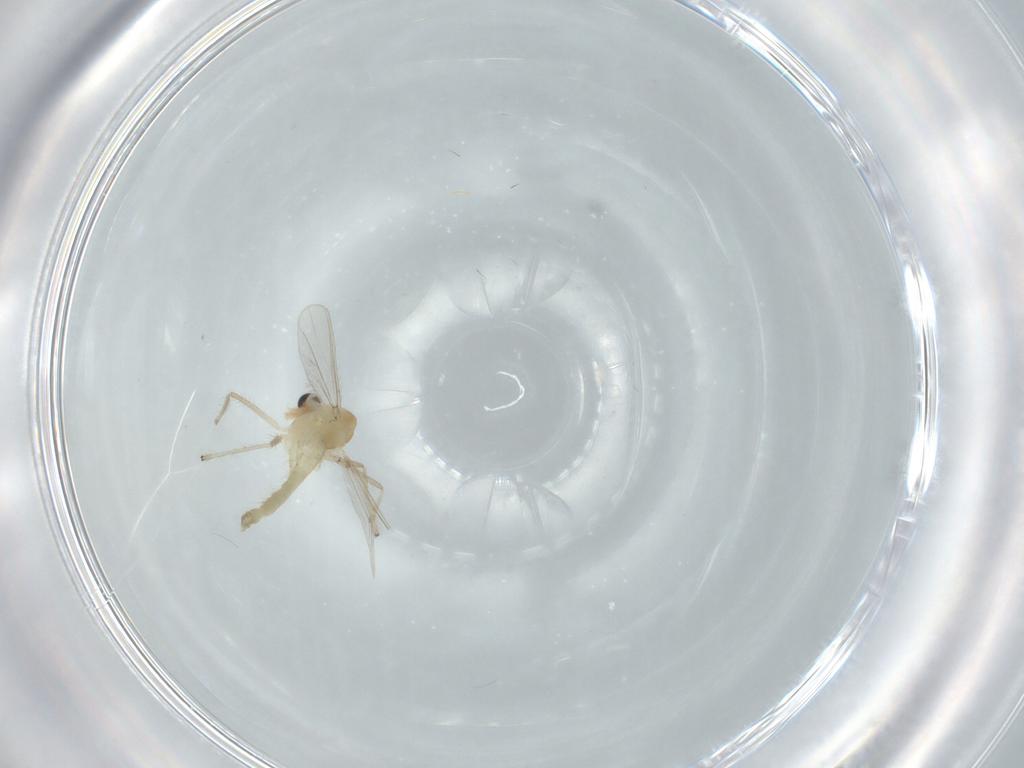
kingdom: Animalia
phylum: Arthropoda
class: Insecta
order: Diptera
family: Chironomidae
